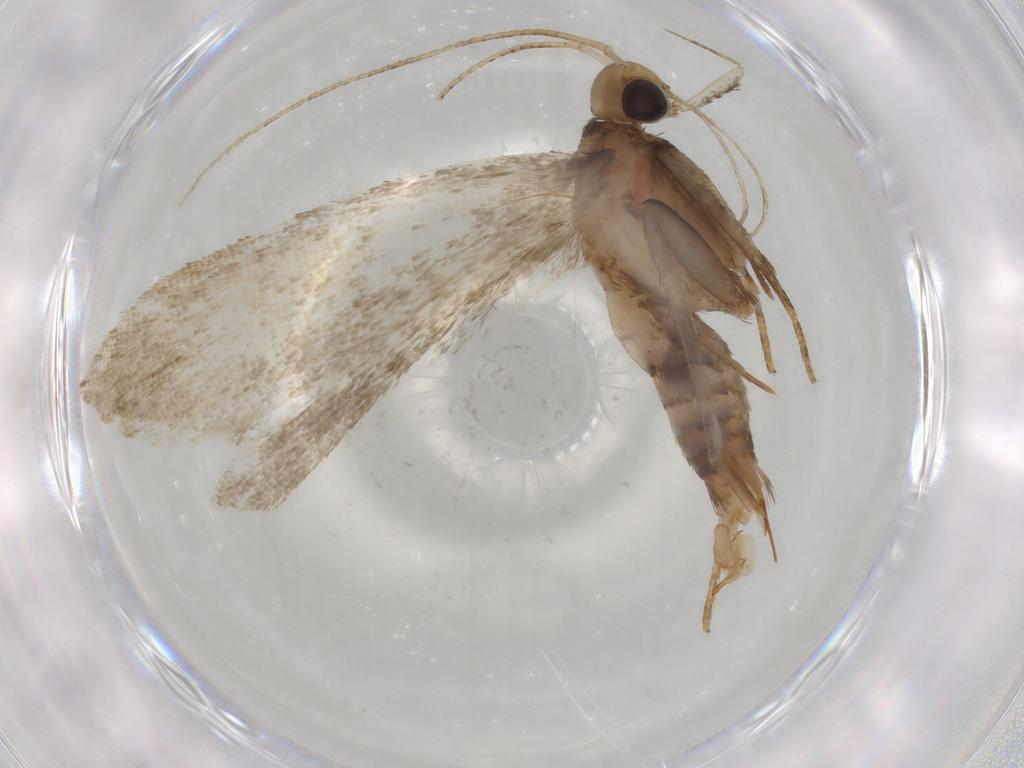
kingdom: Animalia
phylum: Arthropoda
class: Insecta
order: Lepidoptera
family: Gelechiidae
